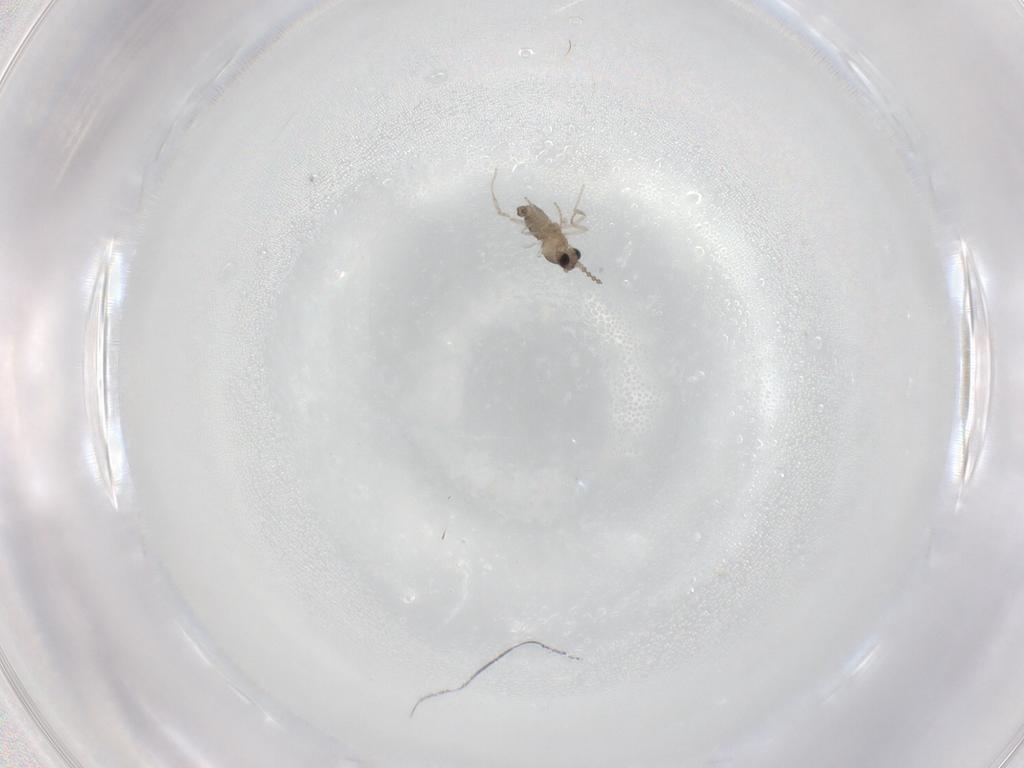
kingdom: Animalia
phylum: Arthropoda
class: Insecta
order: Diptera
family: Cecidomyiidae
